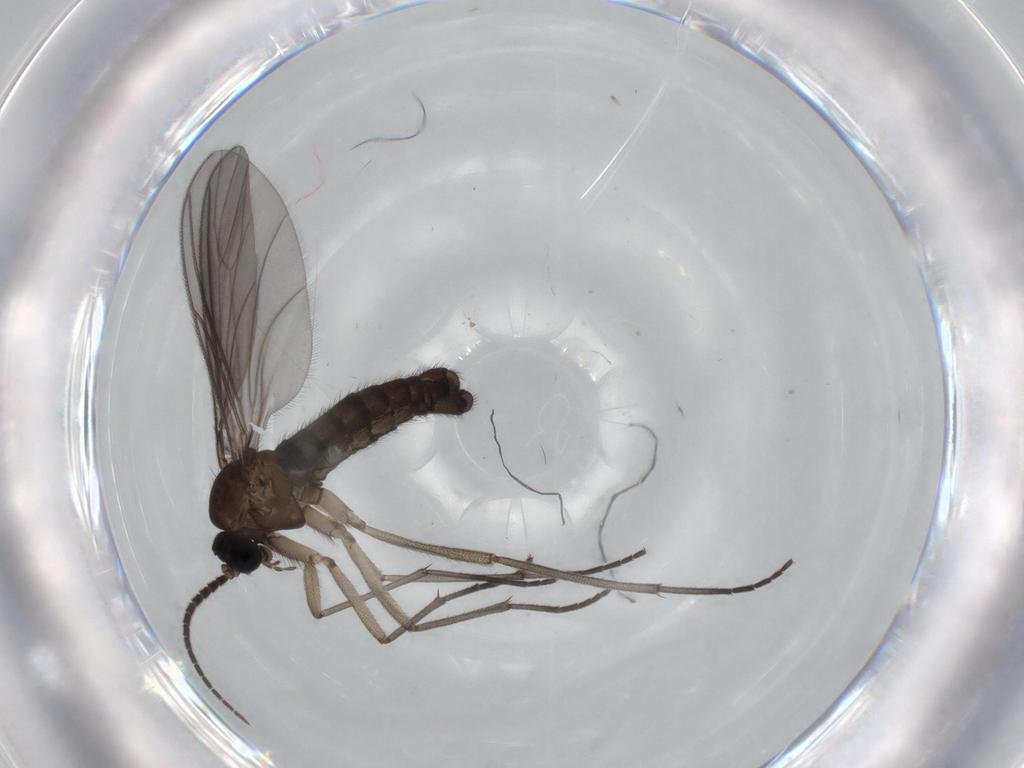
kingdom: Animalia
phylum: Arthropoda
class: Insecta
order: Diptera
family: Sciaridae
